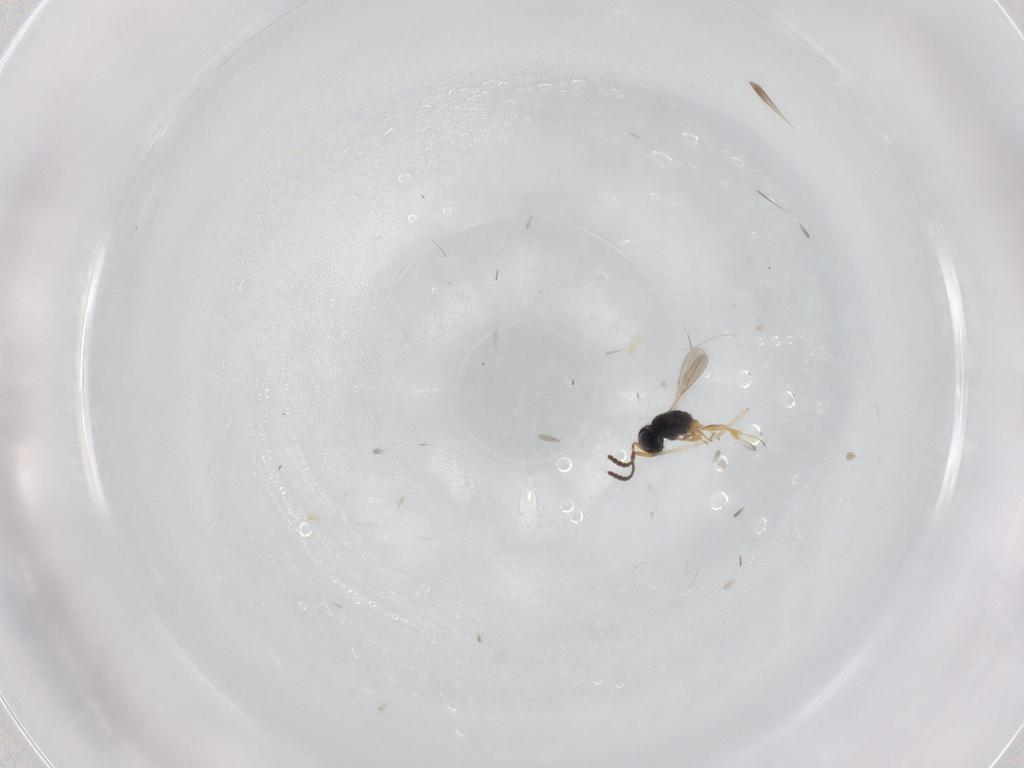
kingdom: Animalia
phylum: Arthropoda
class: Insecta
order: Hymenoptera
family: Scelionidae
